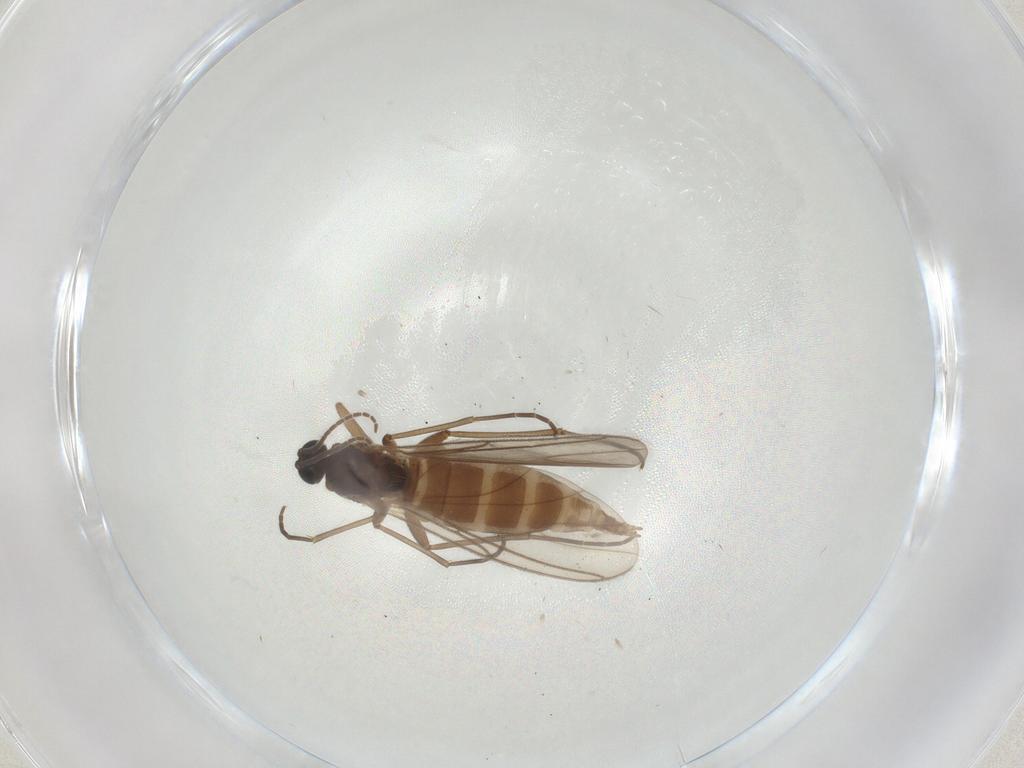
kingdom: Animalia
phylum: Arthropoda
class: Insecta
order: Diptera
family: Sciaridae
